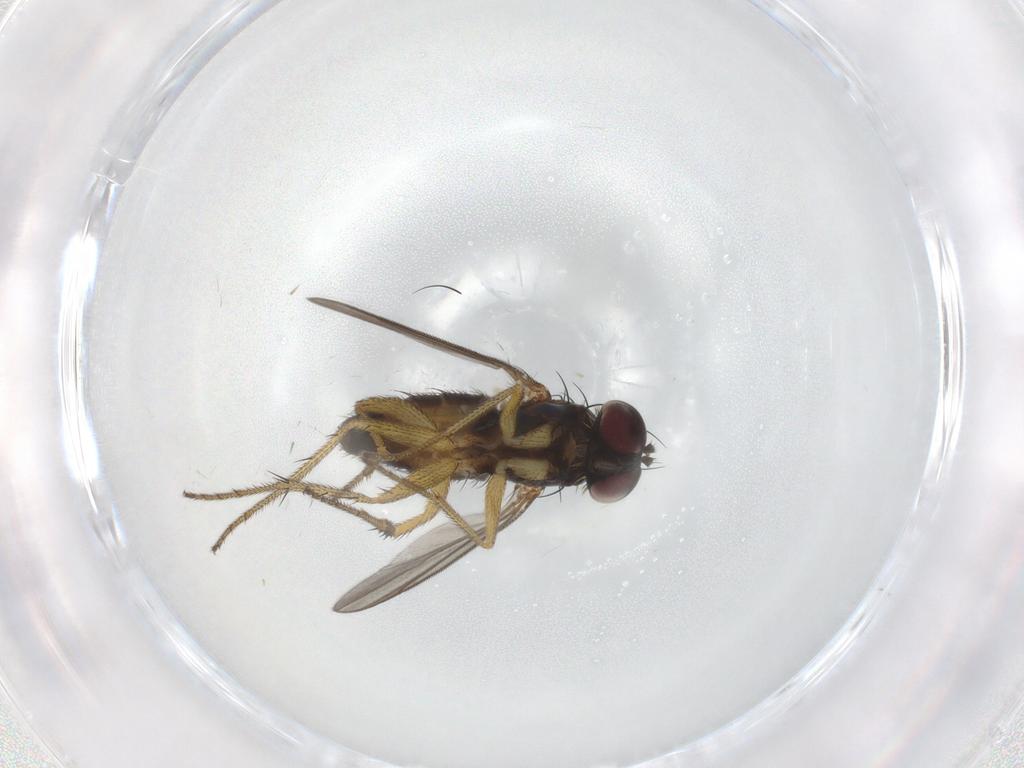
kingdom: Animalia
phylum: Arthropoda
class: Insecta
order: Diptera
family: Dolichopodidae
